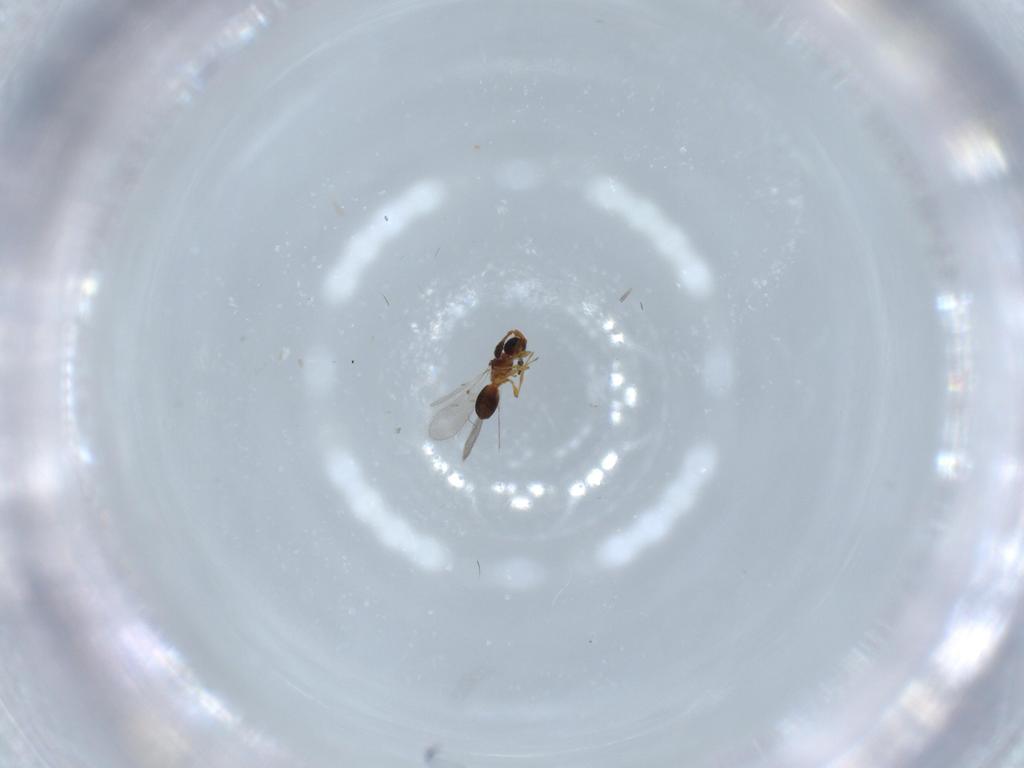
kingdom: Animalia
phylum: Arthropoda
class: Insecta
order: Hymenoptera
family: Diapriidae
